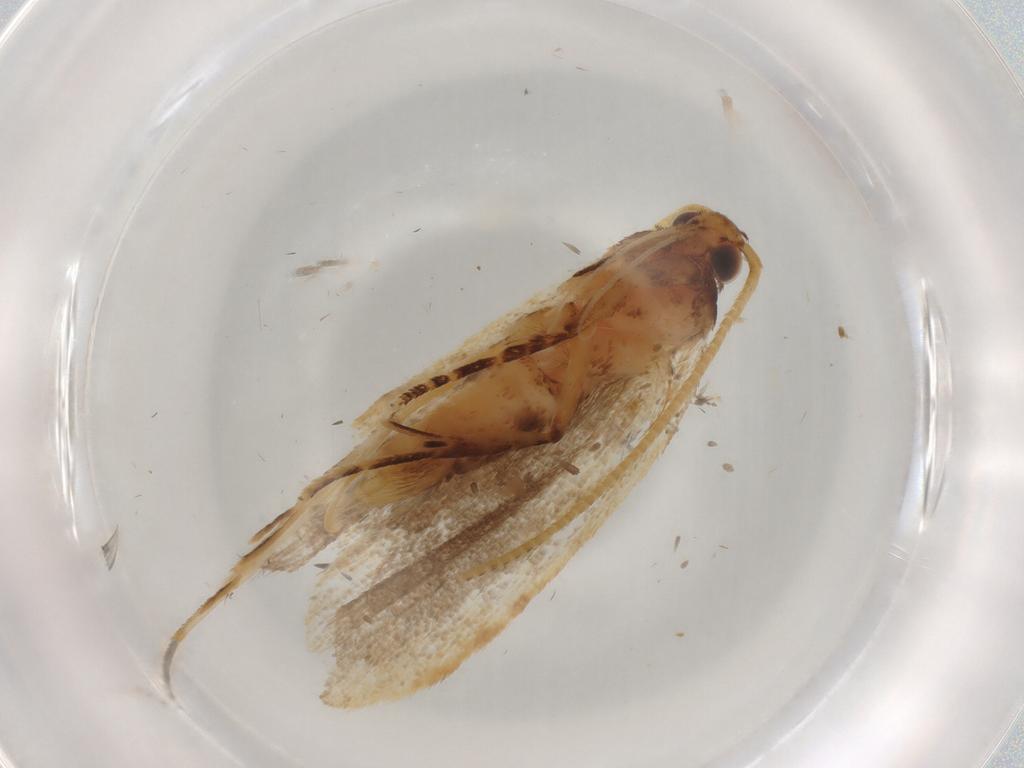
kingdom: Animalia
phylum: Arthropoda
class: Insecta
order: Lepidoptera
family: Lecithoceridae
